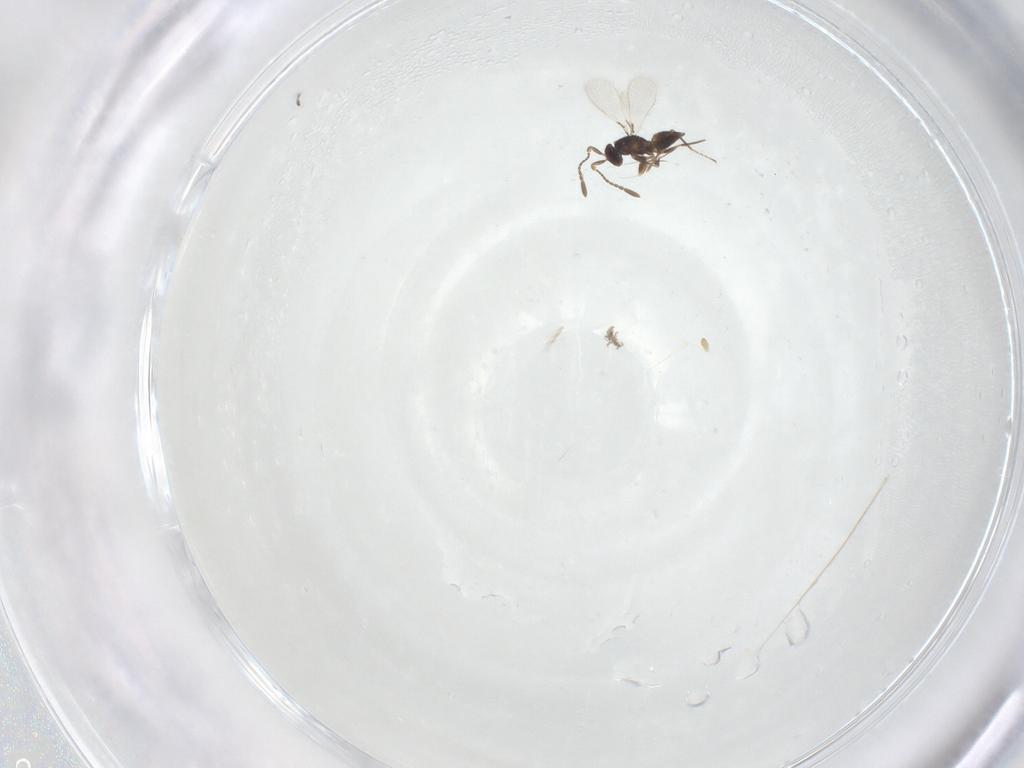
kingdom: Animalia
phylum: Arthropoda
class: Insecta
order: Hymenoptera
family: Mymaridae
